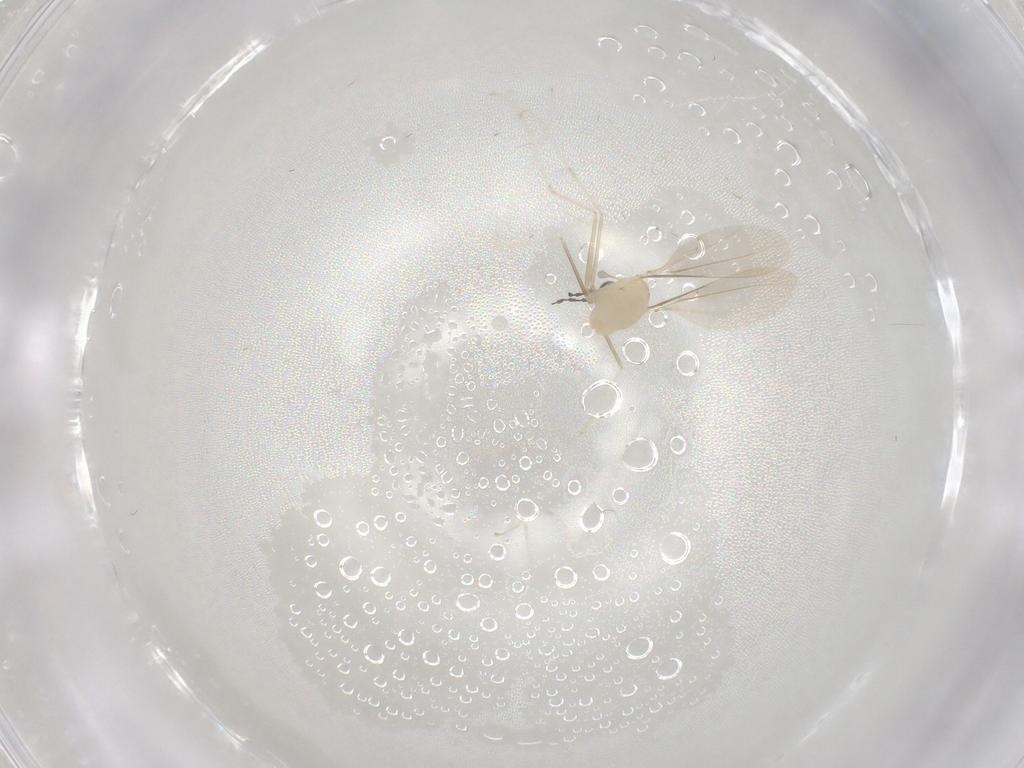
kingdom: Animalia
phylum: Arthropoda
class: Insecta
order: Diptera
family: Cecidomyiidae
